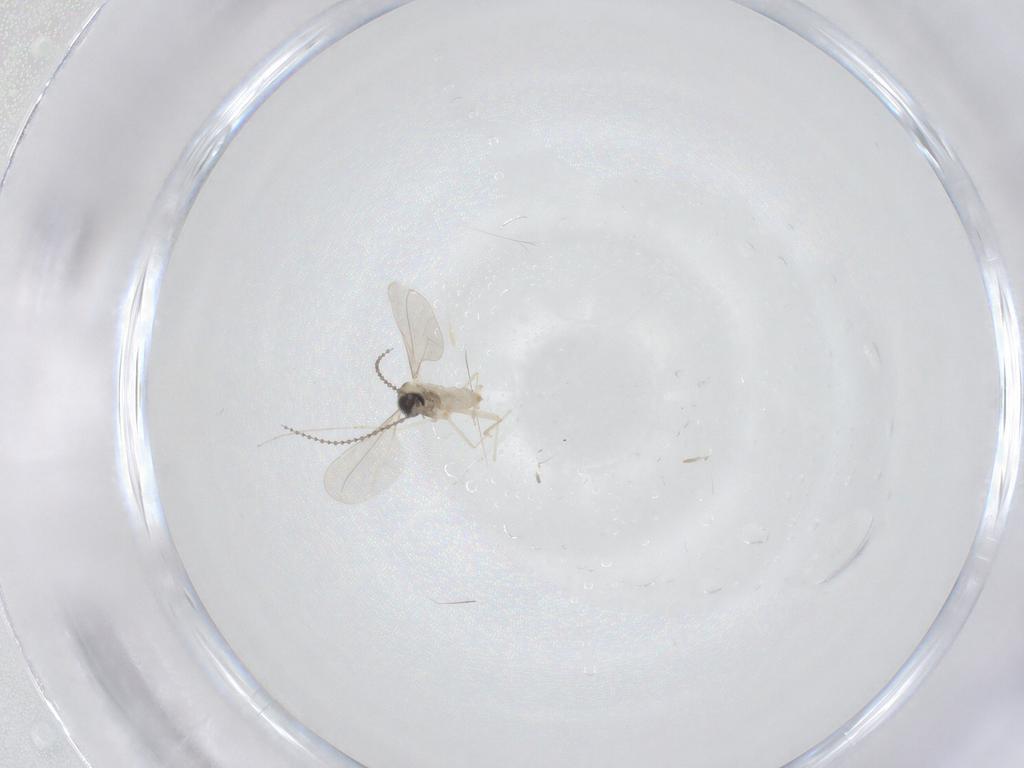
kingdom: Animalia
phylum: Arthropoda
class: Insecta
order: Diptera
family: Cecidomyiidae
